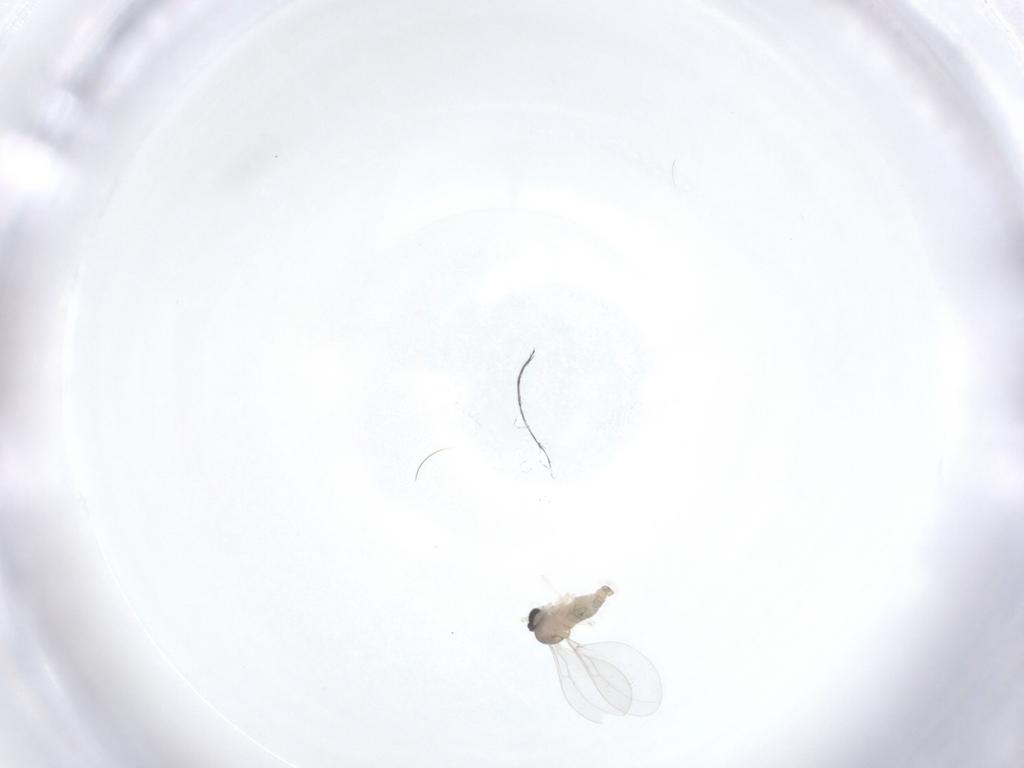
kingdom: Animalia
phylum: Arthropoda
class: Insecta
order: Diptera
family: Cecidomyiidae
